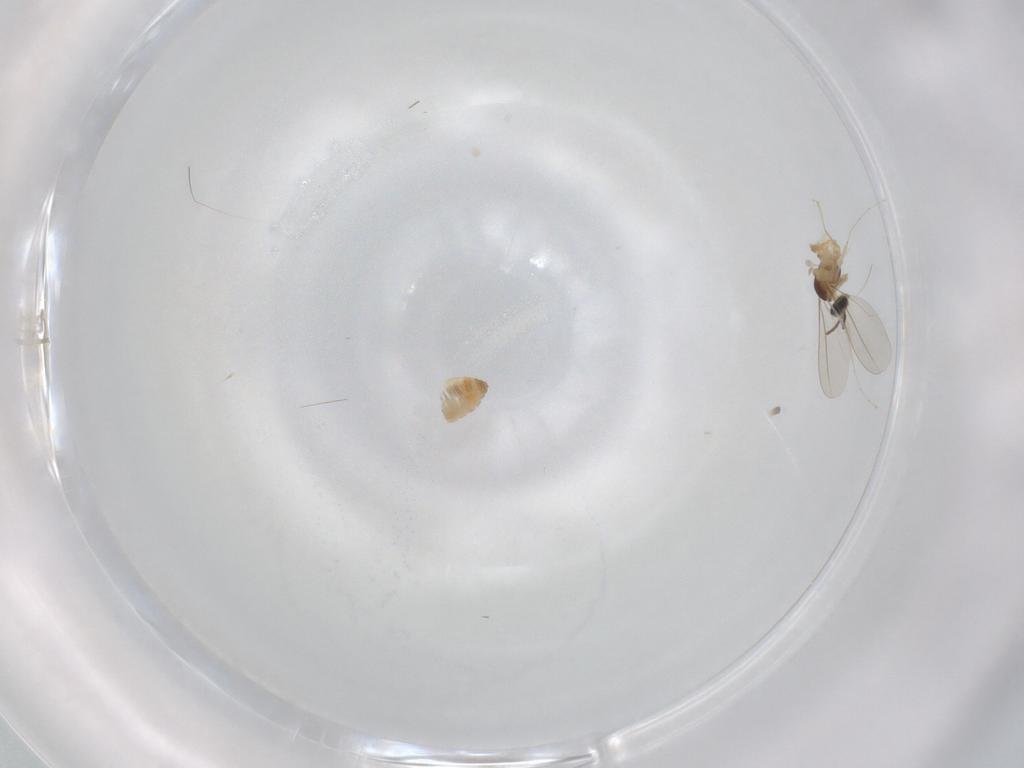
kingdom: Animalia
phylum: Arthropoda
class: Insecta
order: Diptera
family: Cecidomyiidae
